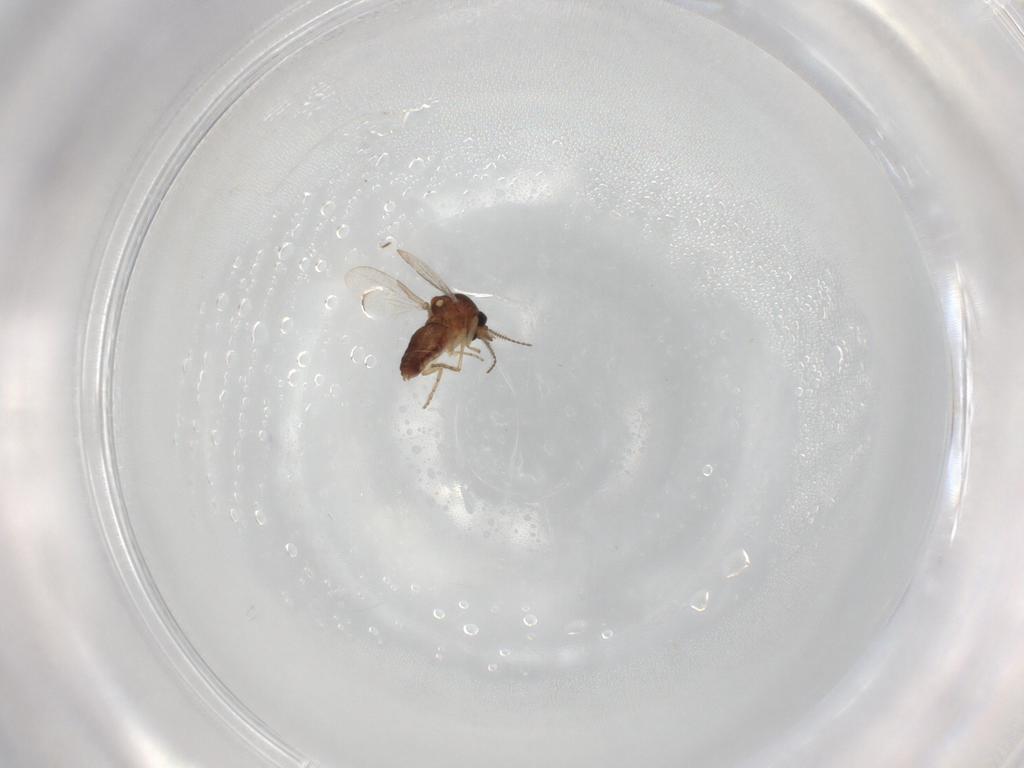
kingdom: Animalia
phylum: Arthropoda
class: Insecta
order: Diptera
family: Ceratopogonidae
